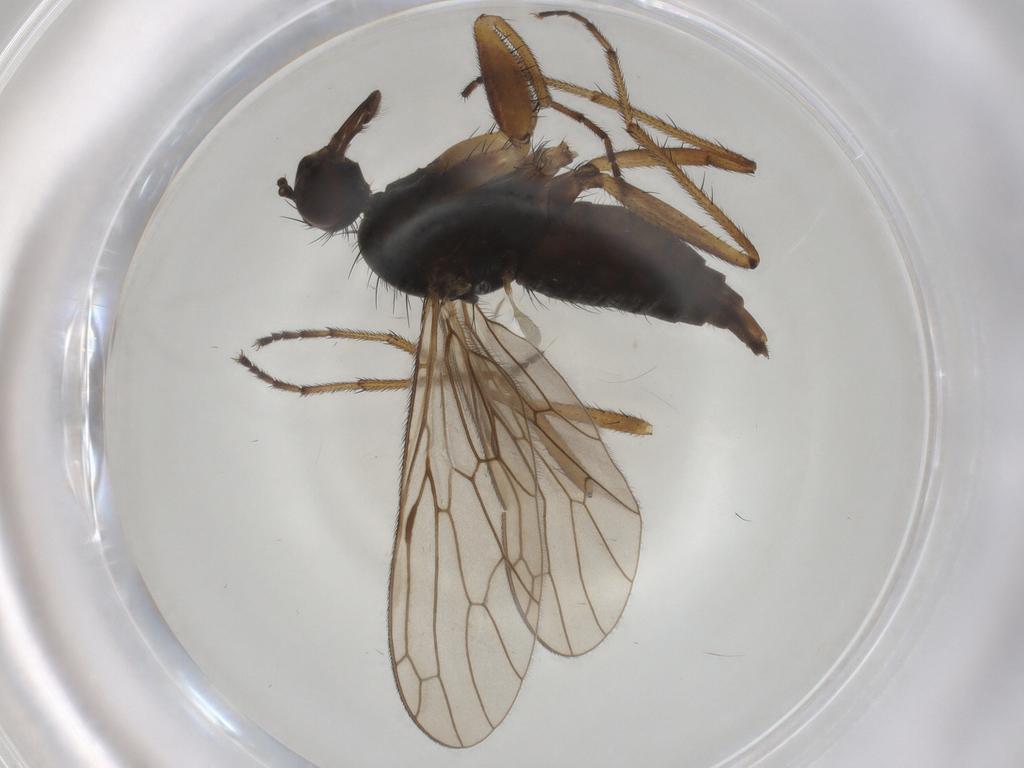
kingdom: Animalia
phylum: Arthropoda
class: Insecta
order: Diptera
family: Empididae
